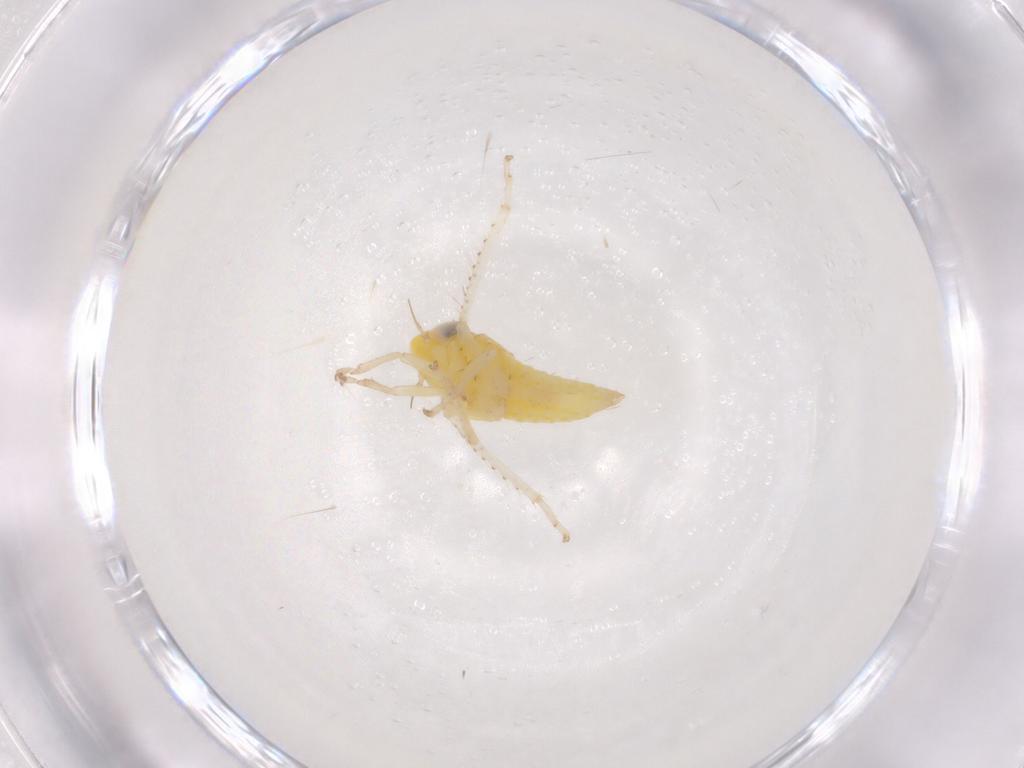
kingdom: Animalia
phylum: Arthropoda
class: Insecta
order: Hemiptera
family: Cicadellidae
